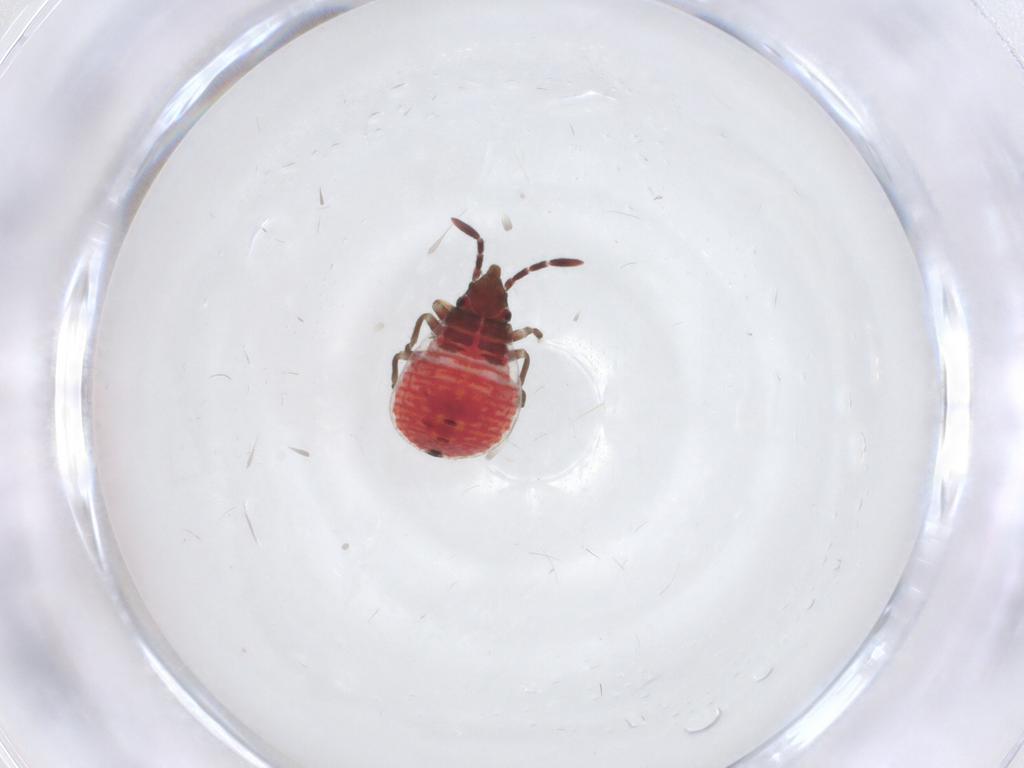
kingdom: Animalia
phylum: Arthropoda
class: Insecta
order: Hemiptera
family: Rhyparochromidae
